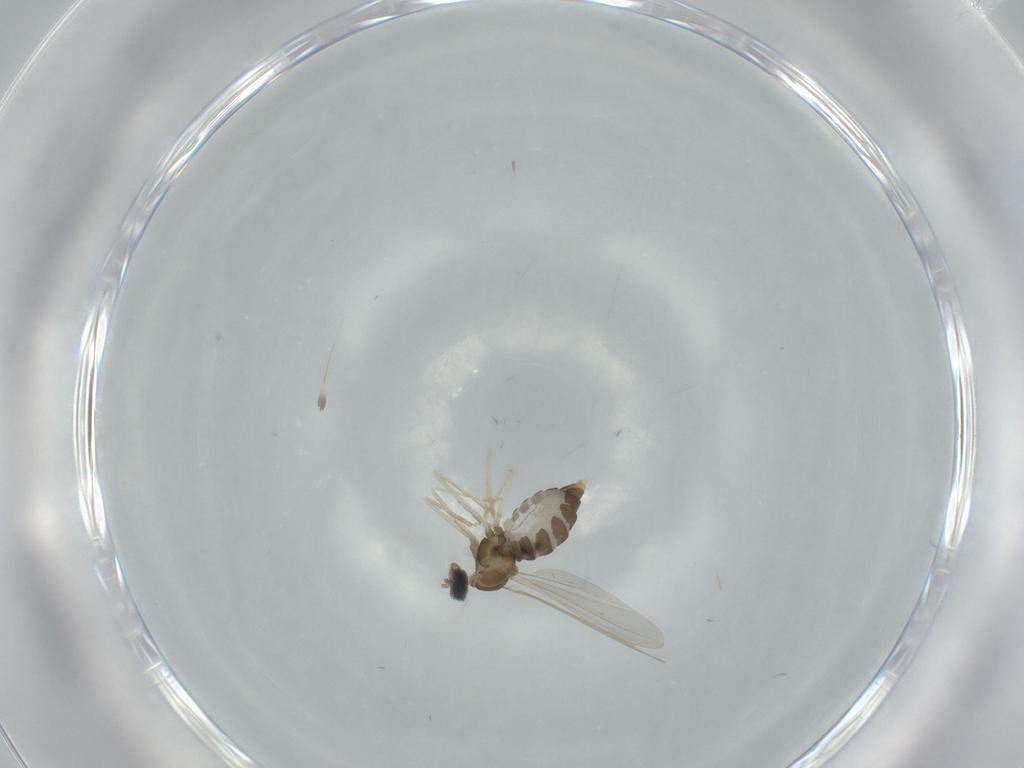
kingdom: Animalia
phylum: Arthropoda
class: Insecta
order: Diptera
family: Cecidomyiidae
